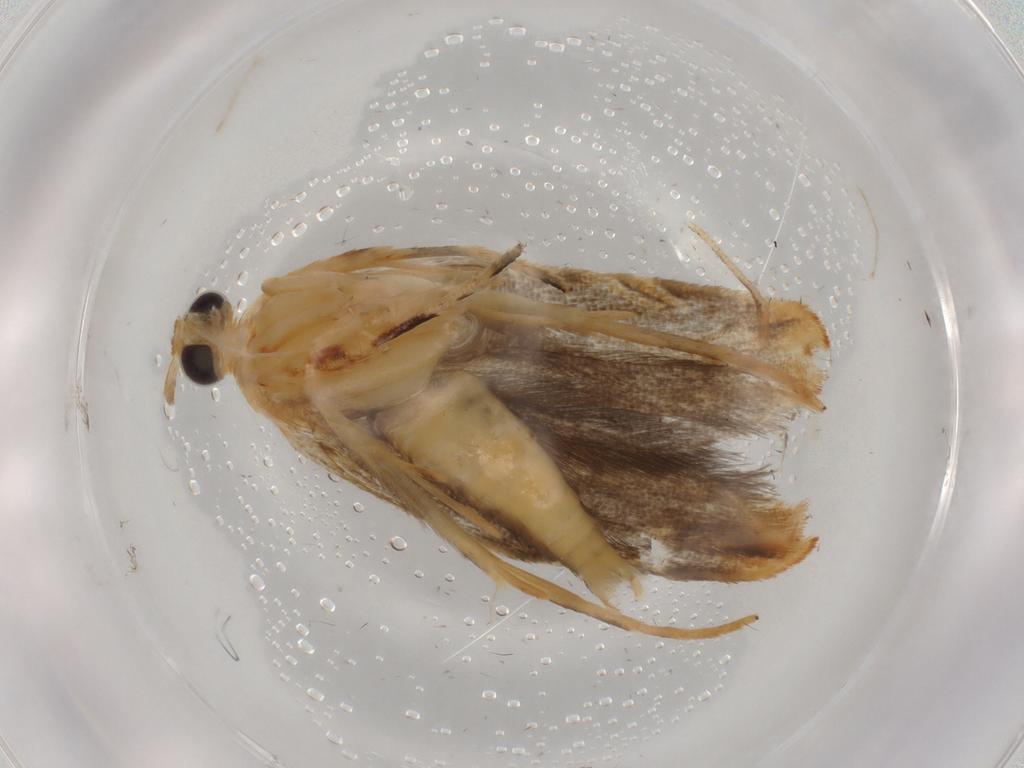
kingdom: Animalia
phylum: Arthropoda
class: Insecta
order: Lepidoptera
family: Gelechiidae
